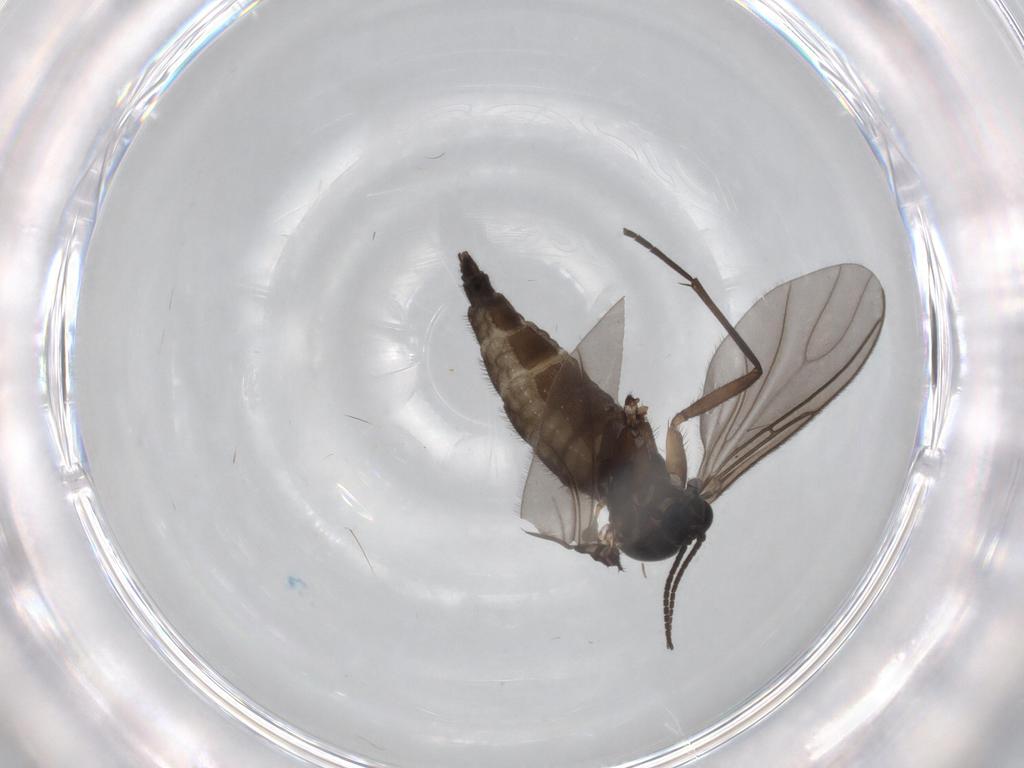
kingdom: Animalia
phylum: Arthropoda
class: Insecta
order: Diptera
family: Sciaridae
